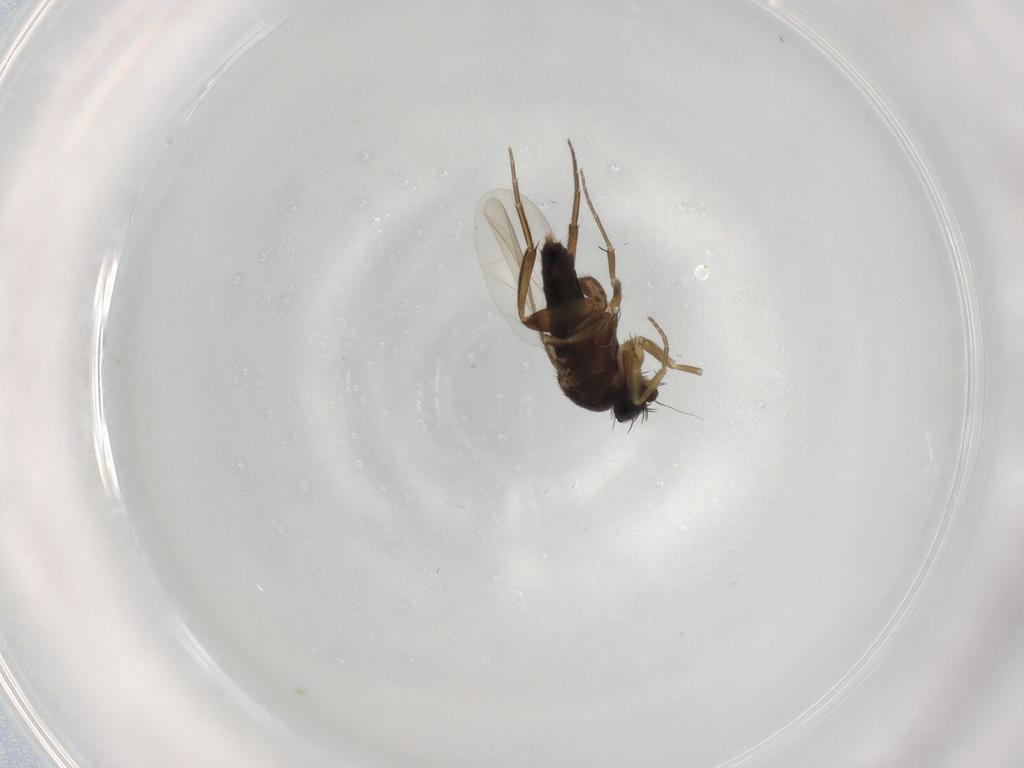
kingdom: Animalia
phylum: Arthropoda
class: Insecta
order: Diptera
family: Phoridae
